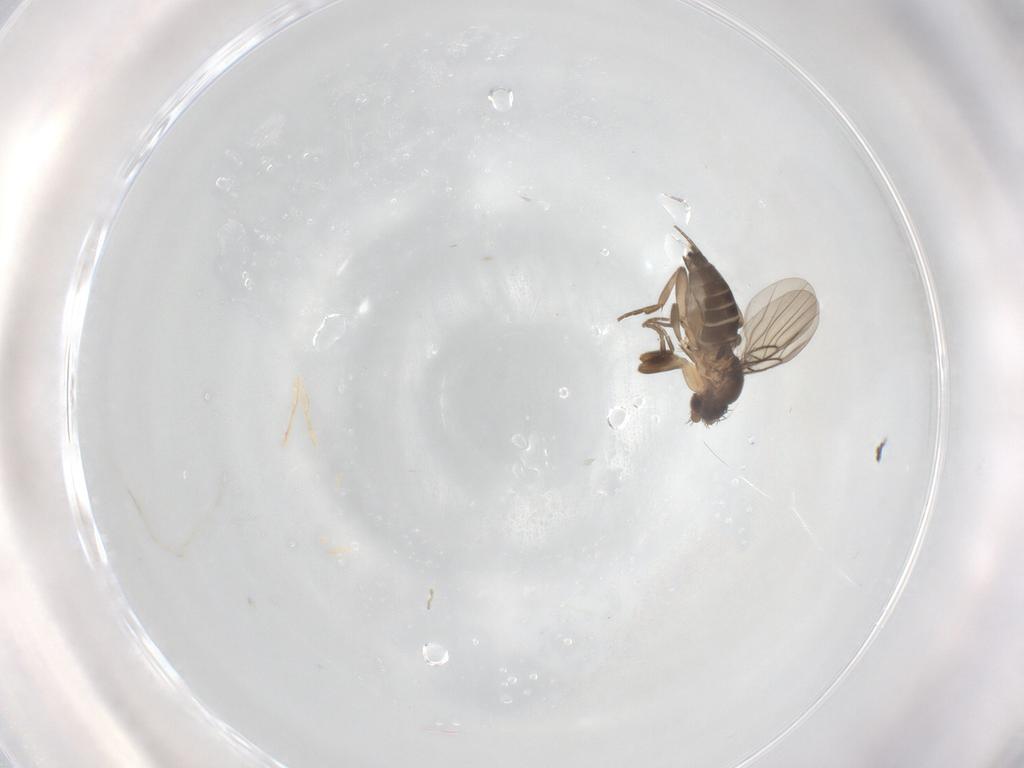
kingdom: Animalia
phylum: Arthropoda
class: Insecta
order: Diptera
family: Phoridae
